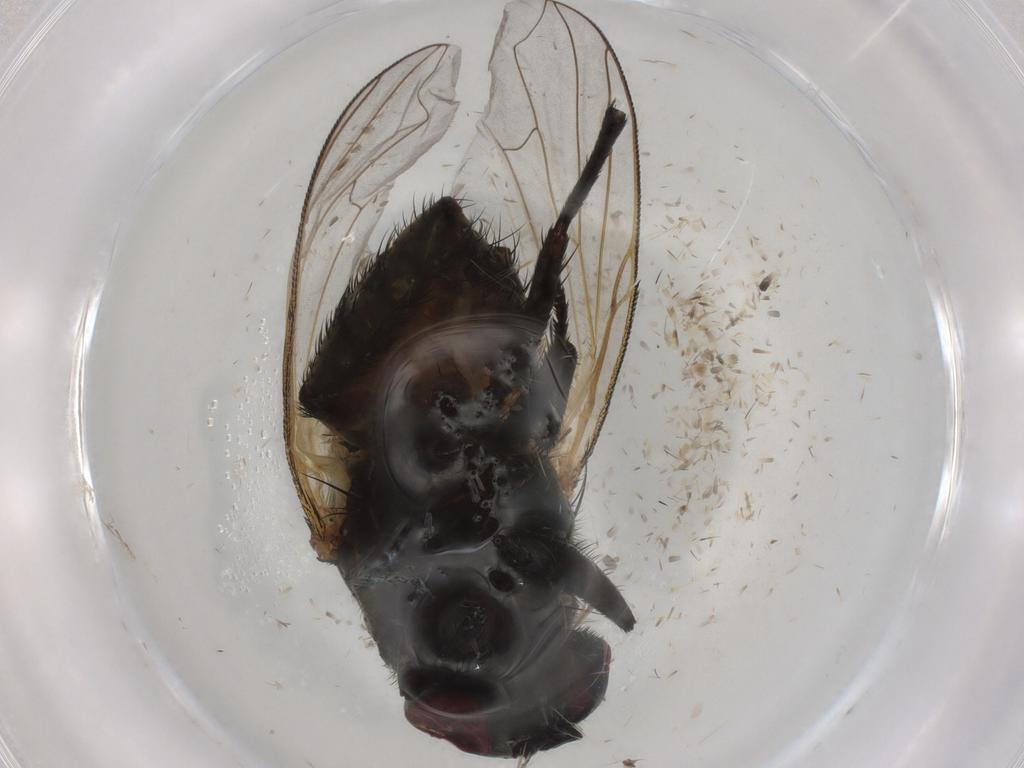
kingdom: Animalia
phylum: Arthropoda
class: Insecta
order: Diptera
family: Muscidae
